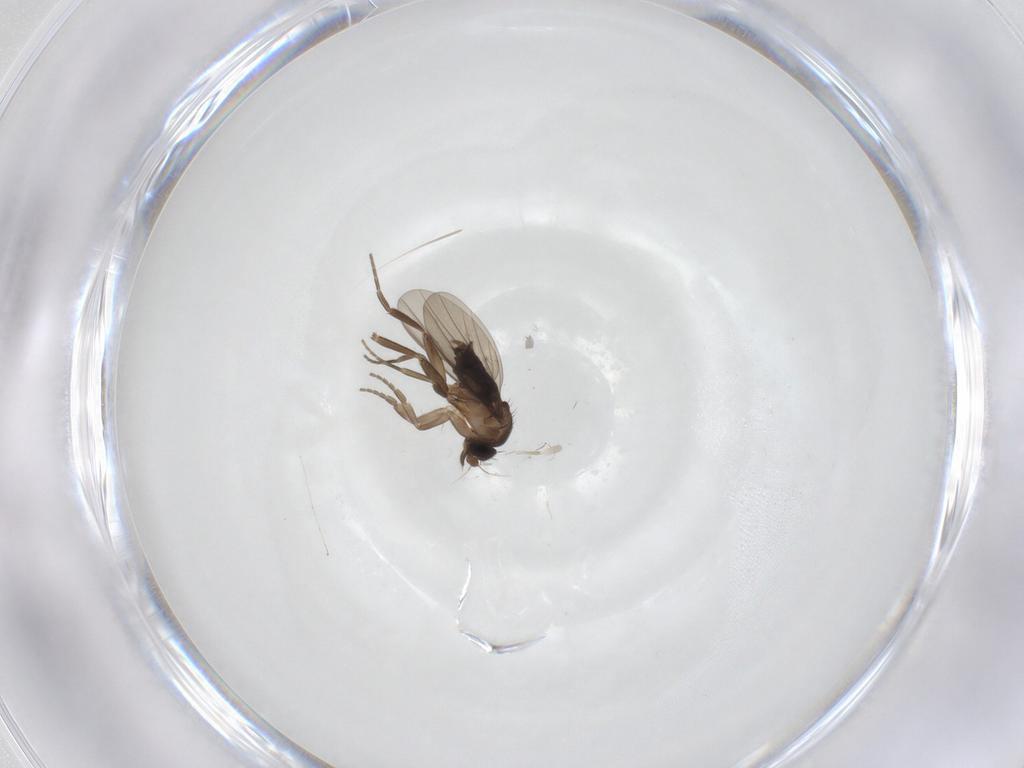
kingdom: Animalia
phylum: Arthropoda
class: Insecta
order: Diptera
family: Limoniidae
